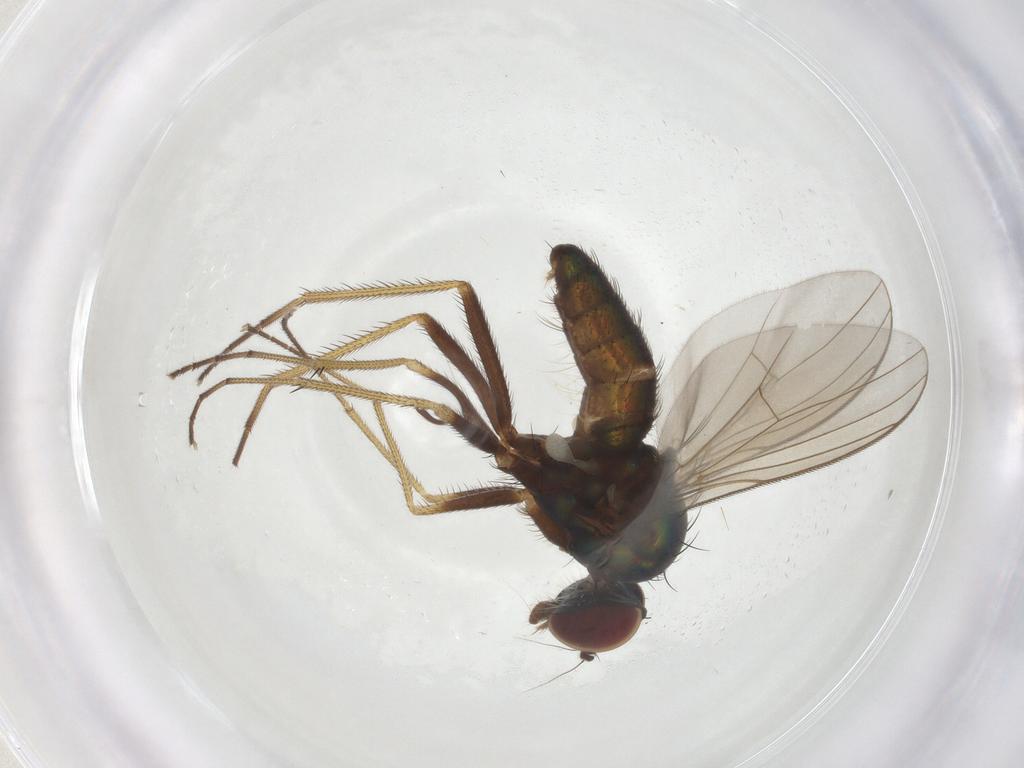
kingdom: Animalia
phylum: Arthropoda
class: Insecta
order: Diptera
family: Dolichopodidae
